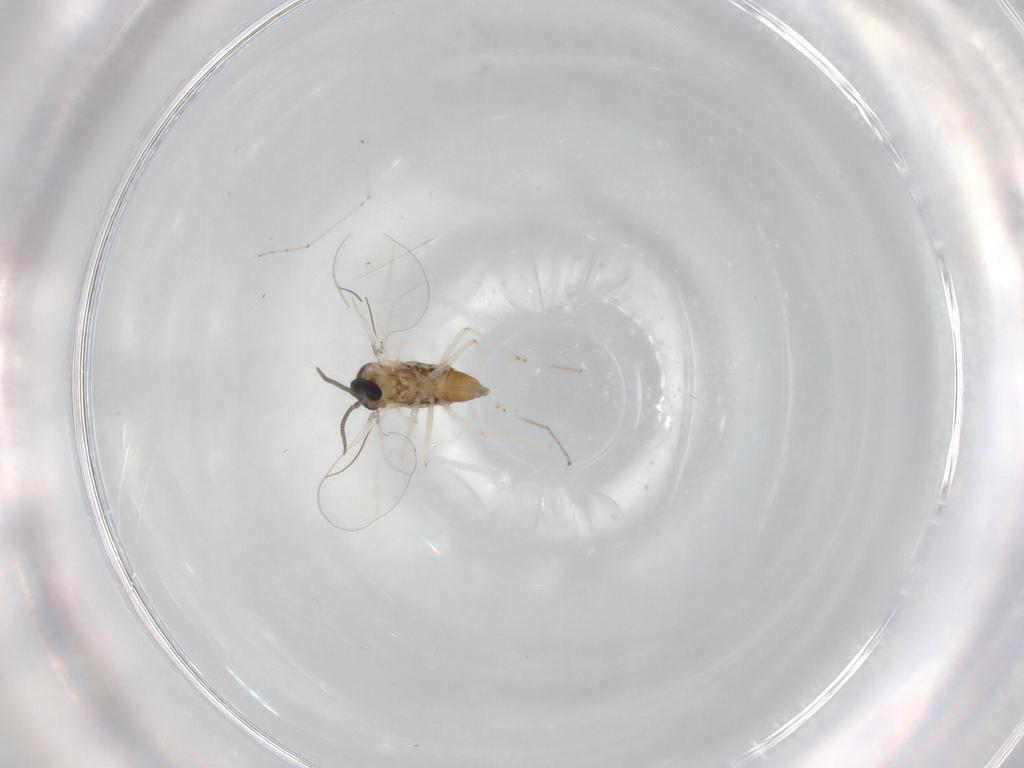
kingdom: Animalia
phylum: Arthropoda
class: Insecta
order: Diptera
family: Cecidomyiidae
